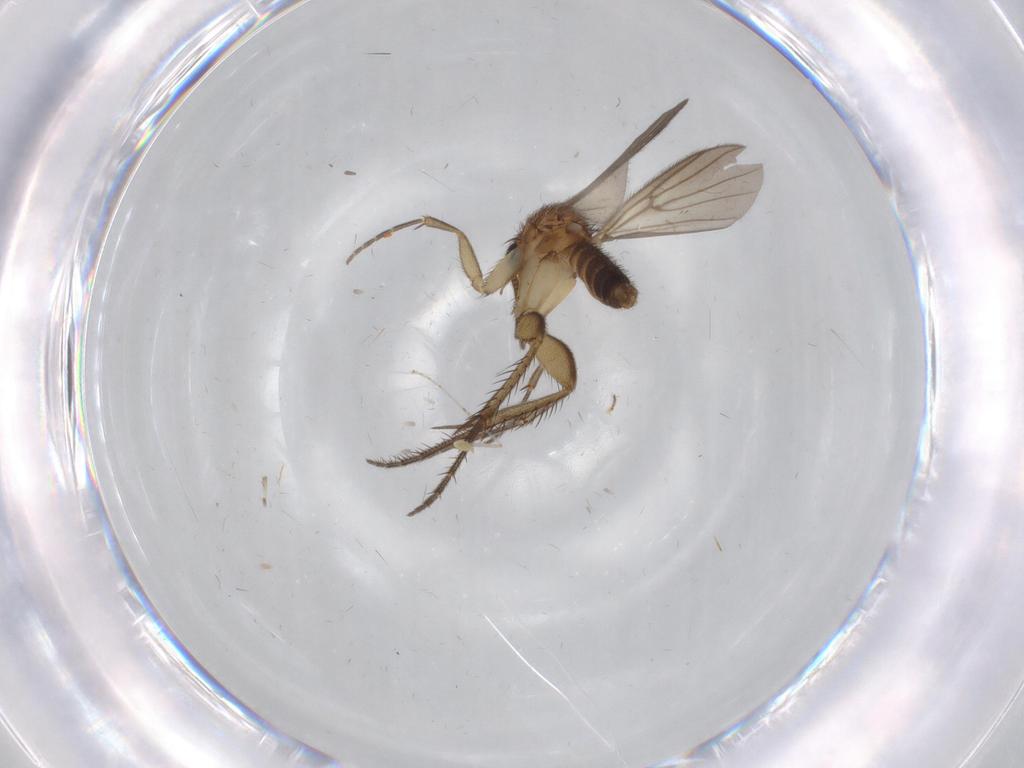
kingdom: Animalia
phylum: Arthropoda
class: Insecta
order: Diptera
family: Mycetophilidae
